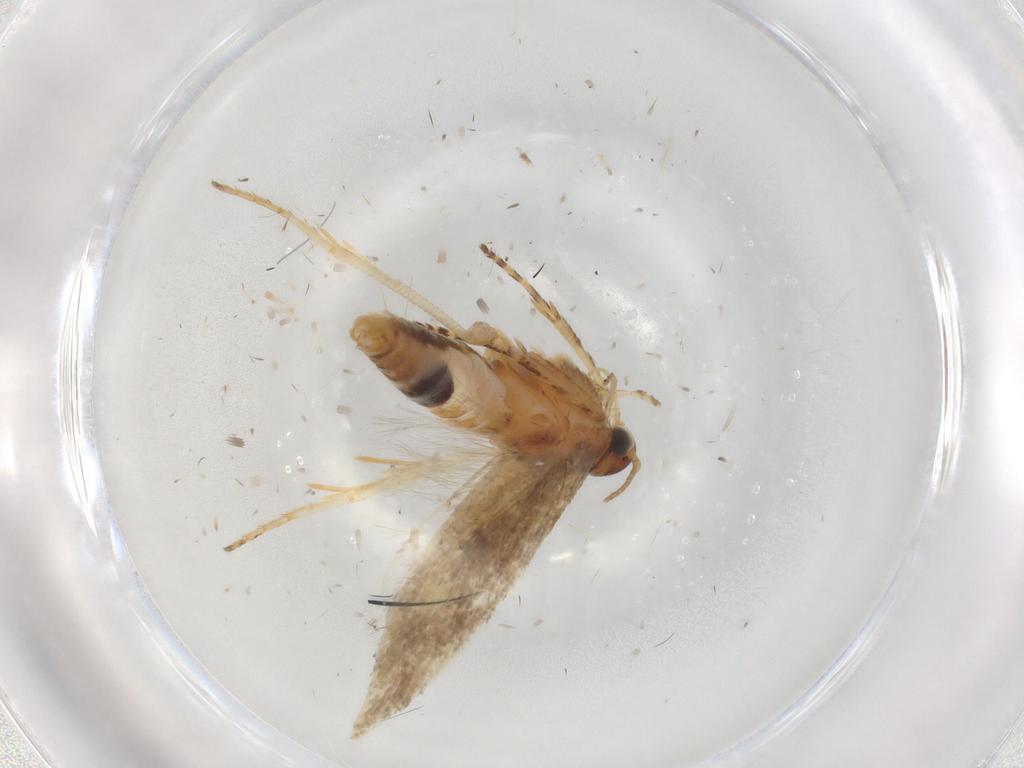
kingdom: Animalia
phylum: Arthropoda
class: Insecta
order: Lepidoptera
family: Gelechiidae
